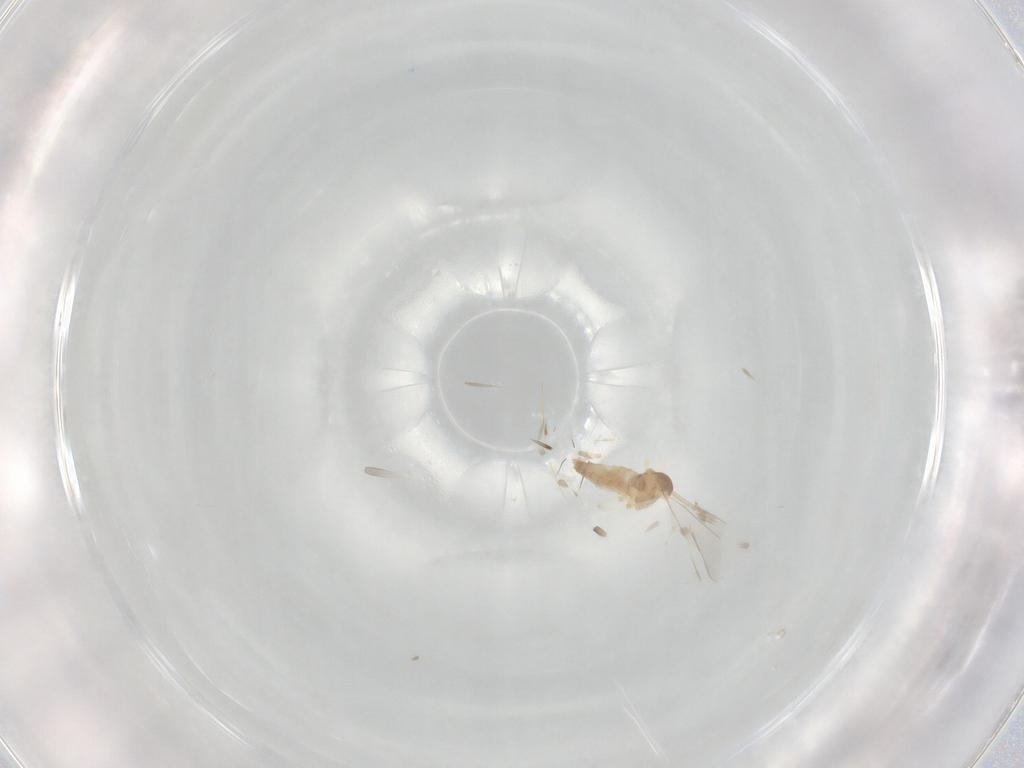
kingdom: Animalia
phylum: Arthropoda
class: Insecta
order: Diptera
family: Cecidomyiidae
